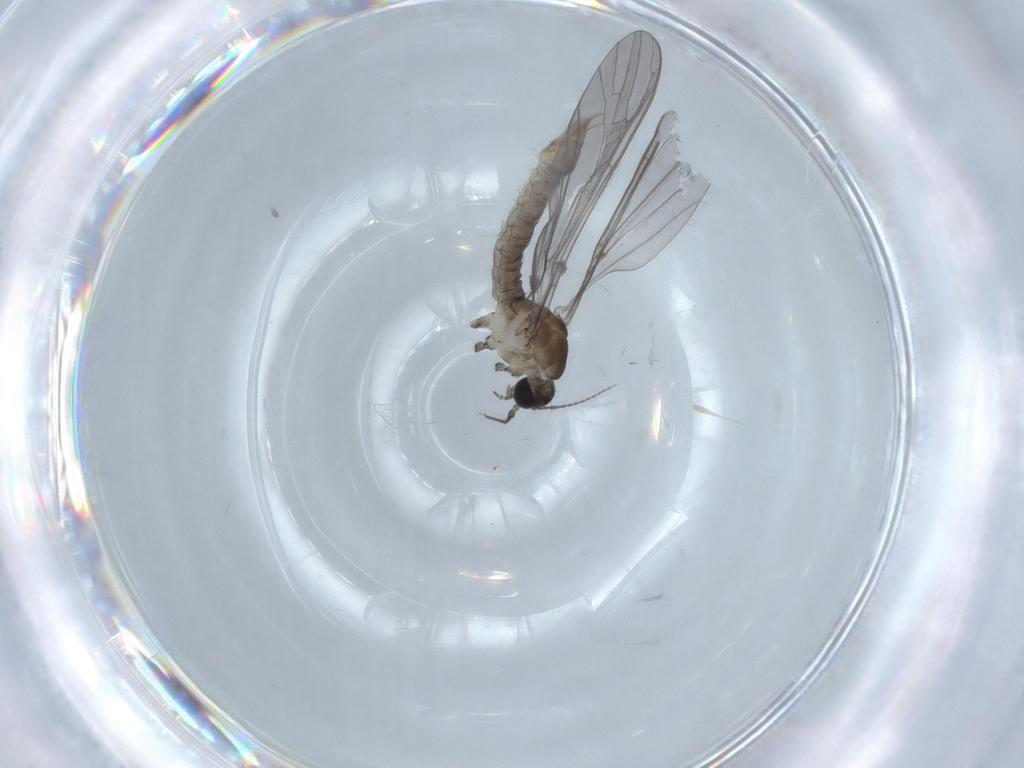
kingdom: Animalia
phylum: Arthropoda
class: Insecta
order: Diptera
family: Limoniidae
